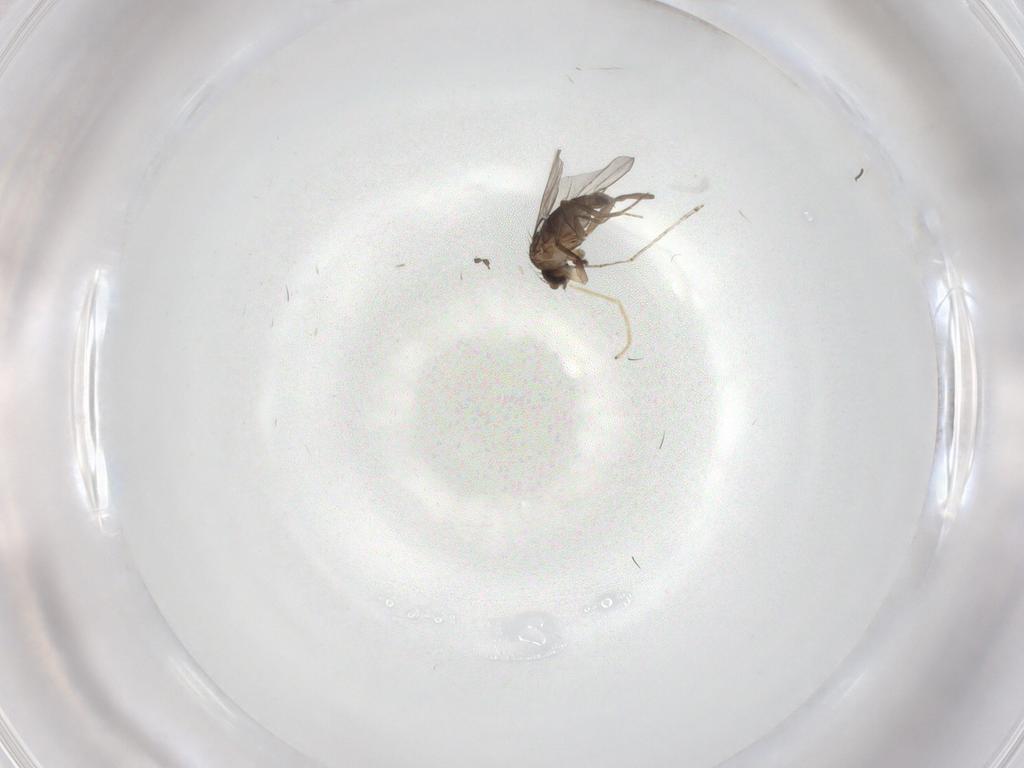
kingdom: Animalia
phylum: Arthropoda
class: Insecta
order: Diptera
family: Phoridae
